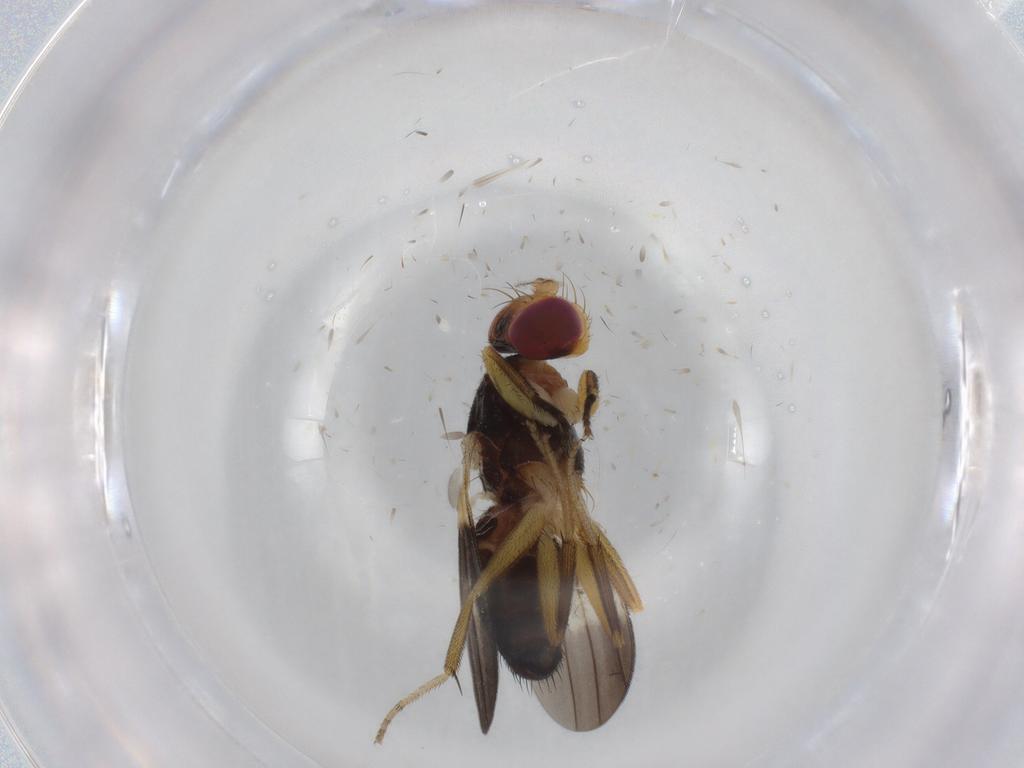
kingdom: Animalia
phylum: Arthropoda
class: Insecta
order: Diptera
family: Clusiidae
